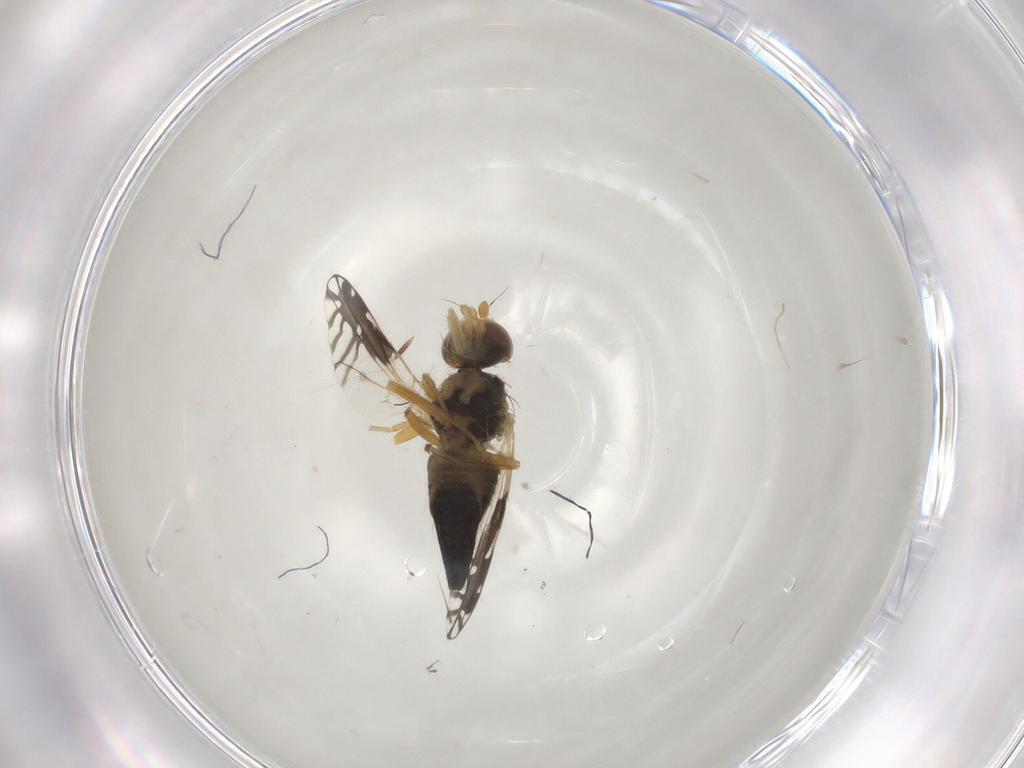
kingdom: Animalia
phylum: Arthropoda
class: Insecta
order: Diptera
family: Tephritidae
